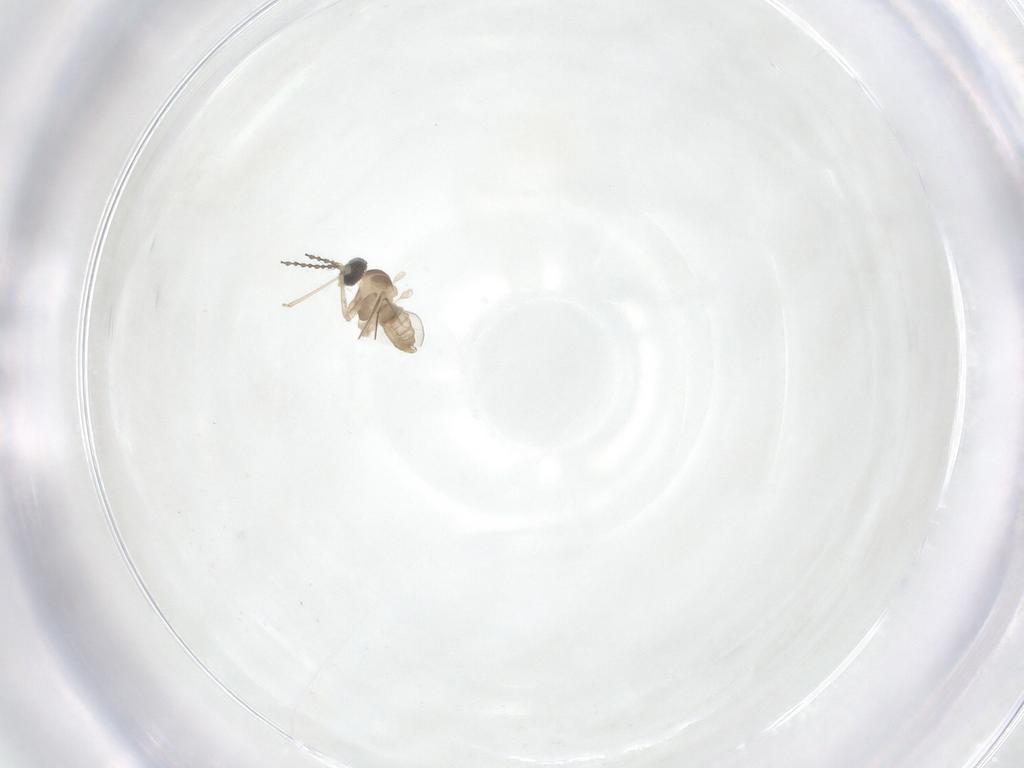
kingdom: Animalia
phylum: Arthropoda
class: Insecta
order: Diptera
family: Cecidomyiidae
